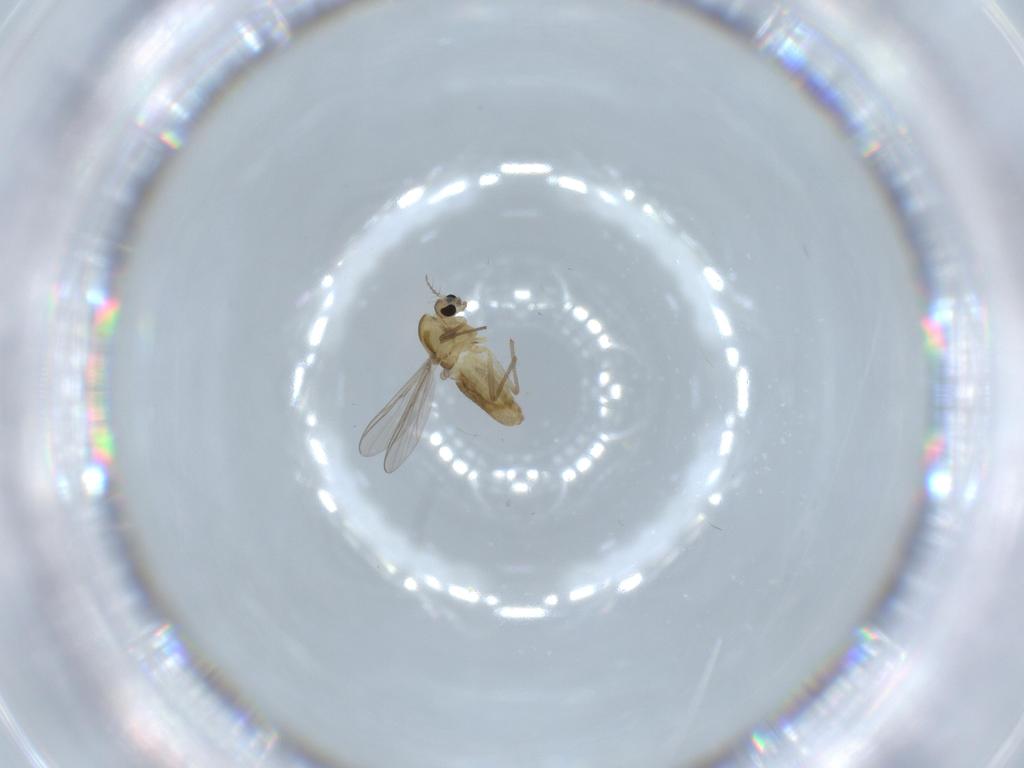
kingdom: Animalia
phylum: Arthropoda
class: Insecta
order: Diptera
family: Chironomidae
